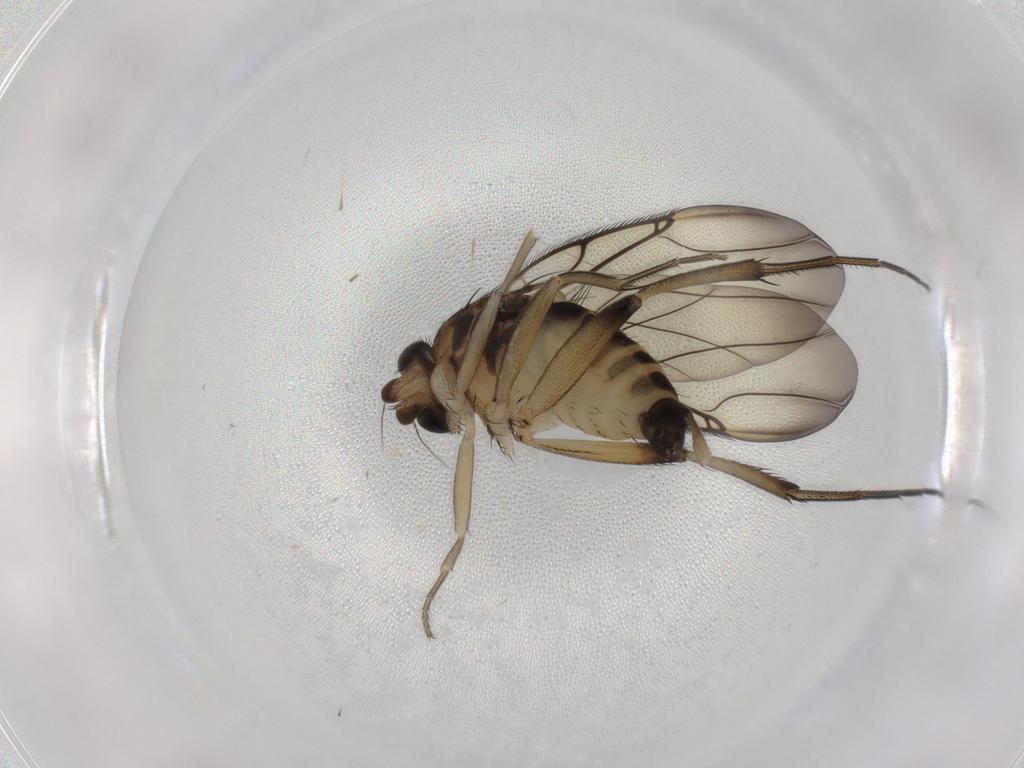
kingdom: Animalia
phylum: Arthropoda
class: Insecta
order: Diptera
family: Phoridae
